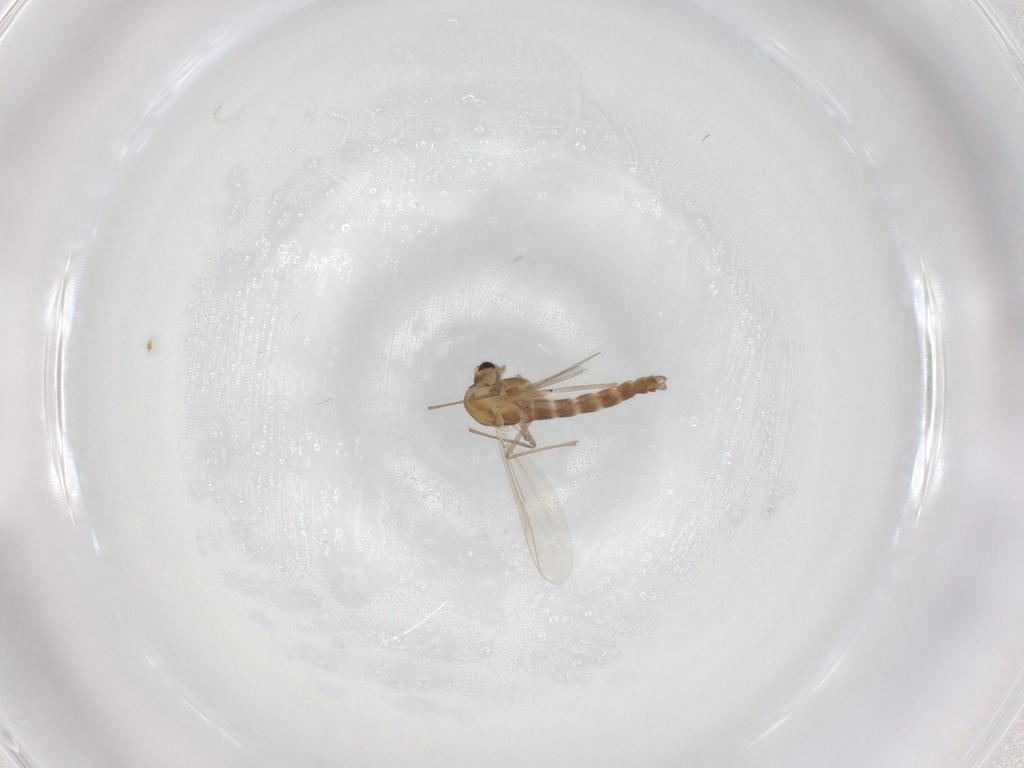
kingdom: Animalia
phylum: Arthropoda
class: Insecta
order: Diptera
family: Chironomidae
